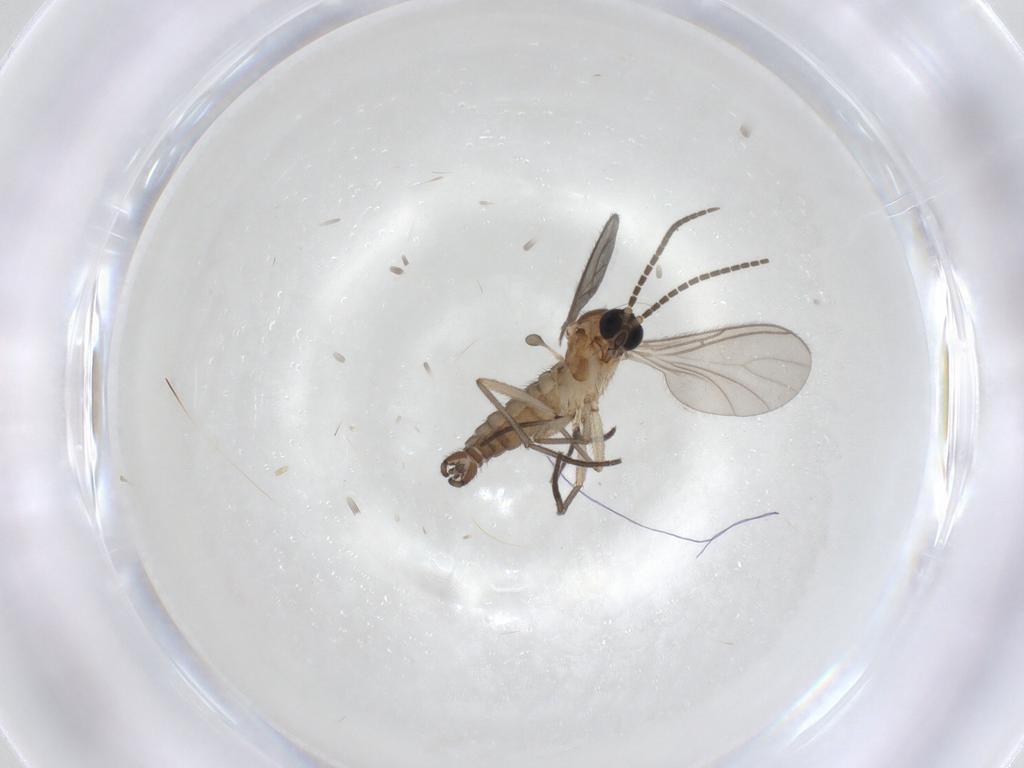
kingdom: Animalia
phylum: Arthropoda
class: Insecta
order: Diptera
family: Sciaridae
